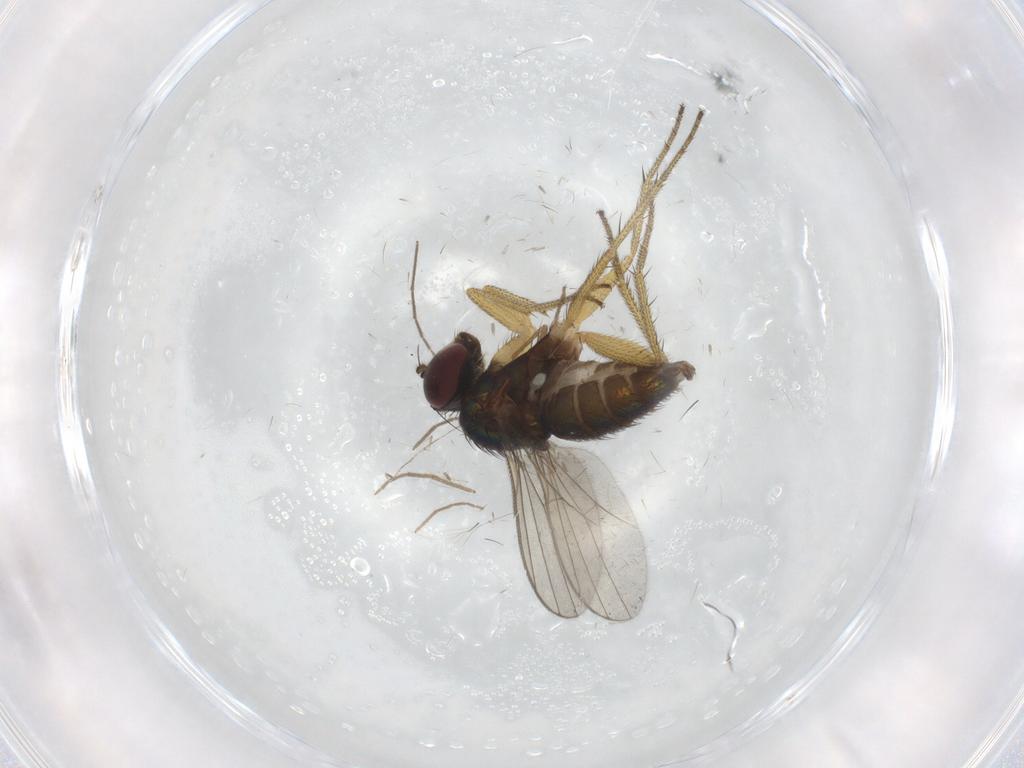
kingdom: Animalia
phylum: Arthropoda
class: Insecta
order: Diptera
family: Chironomidae
